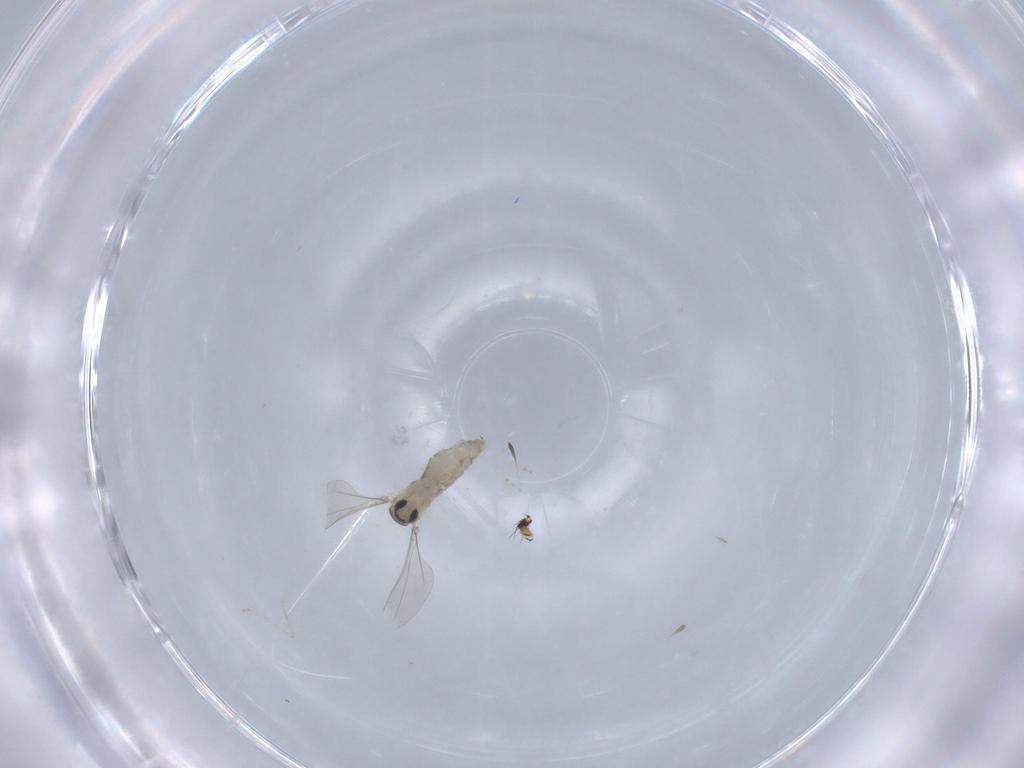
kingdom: Animalia
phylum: Arthropoda
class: Insecta
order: Diptera
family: Cecidomyiidae
